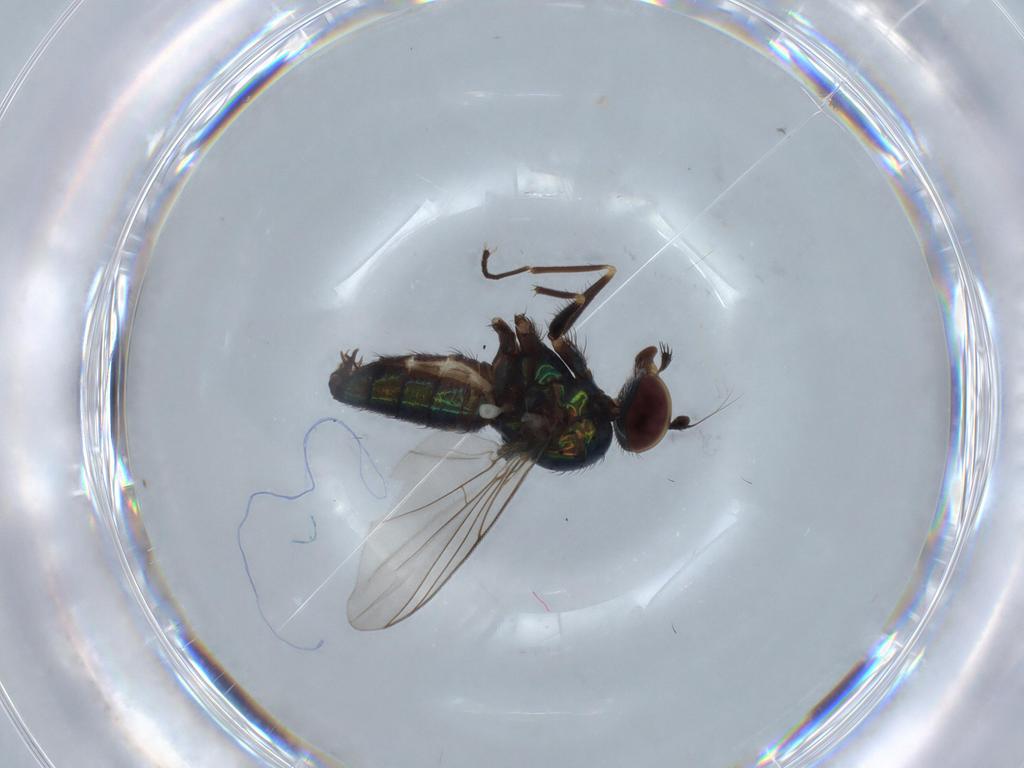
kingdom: Animalia
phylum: Arthropoda
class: Insecta
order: Diptera
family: Dolichopodidae
